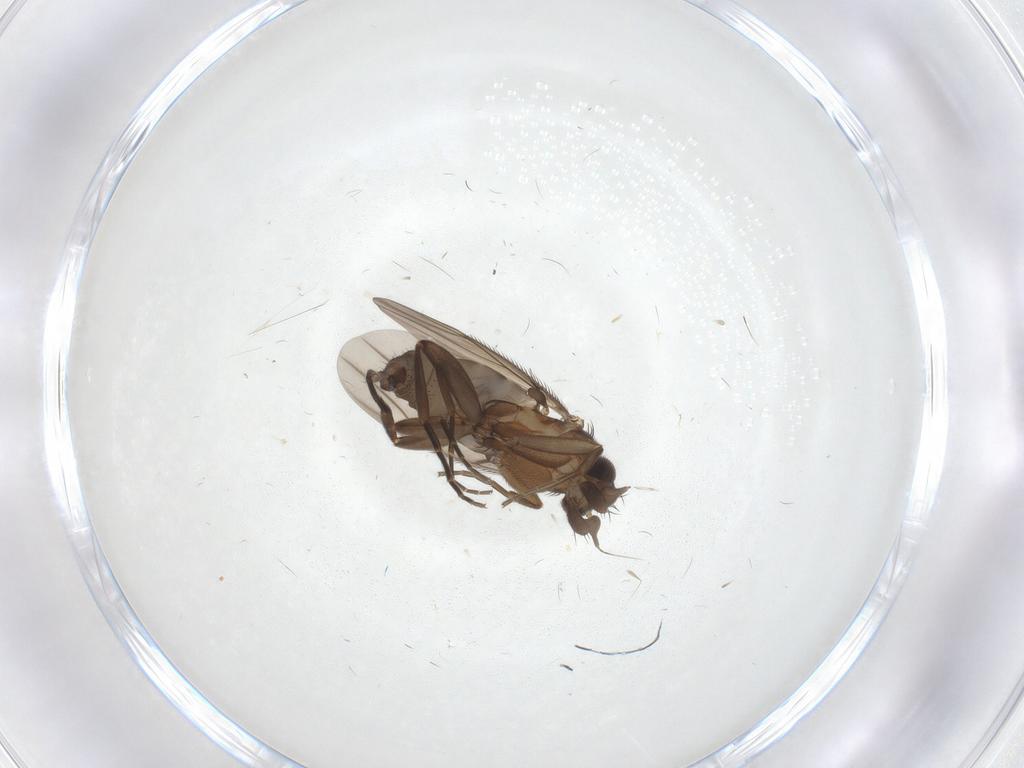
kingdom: Animalia
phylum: Arthropoda
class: Insecta
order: Diptera
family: Phoridae
